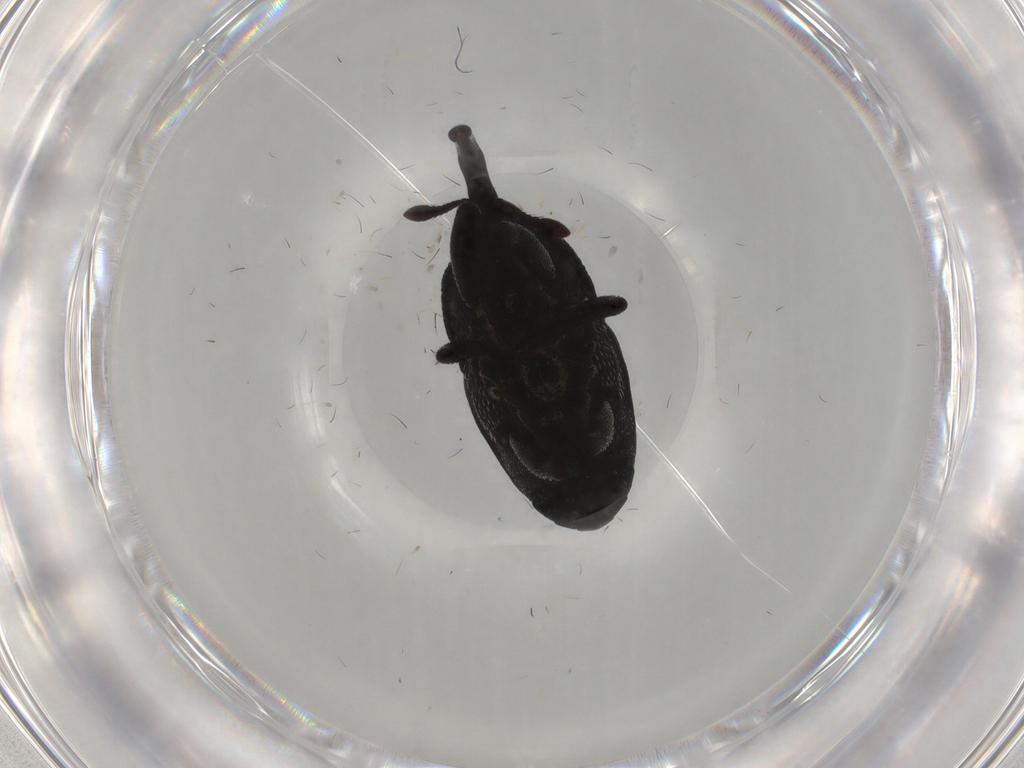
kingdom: Animalia
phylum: Arthropoda
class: Insecta
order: Coleoptera
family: Curculionidae
